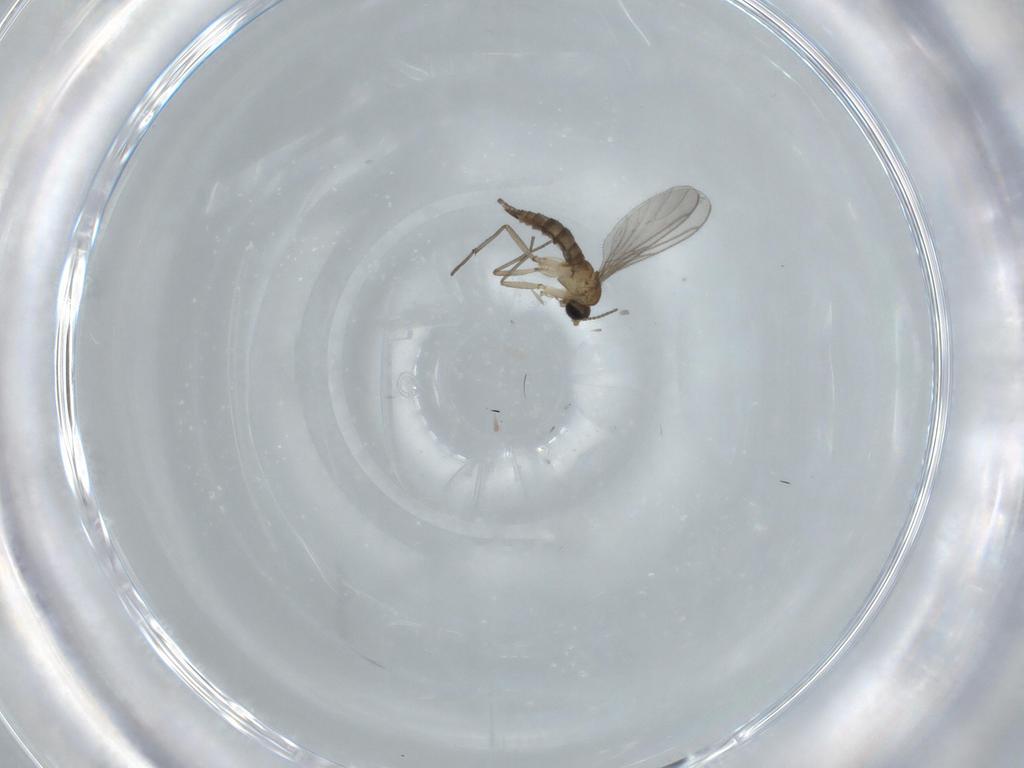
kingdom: Animalia
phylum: Arthropoda
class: Insecta
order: Diptera
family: Sciaridae
